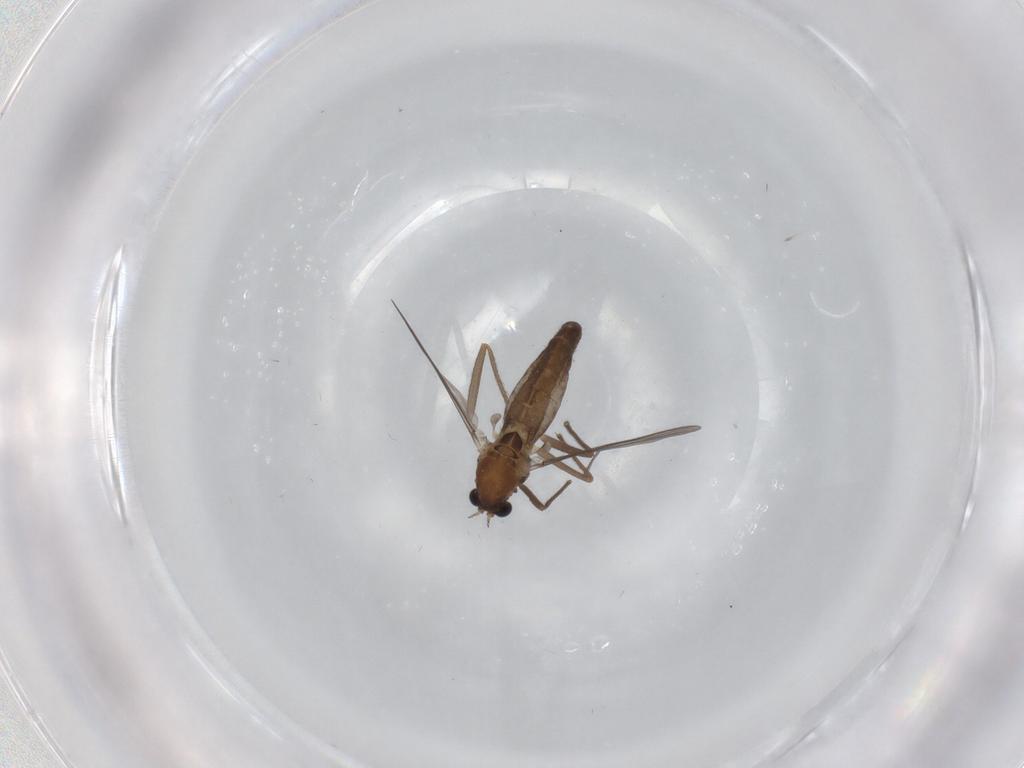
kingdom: Animalia
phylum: Arthropoda
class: Insecta
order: Diptera
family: Chironomidae
